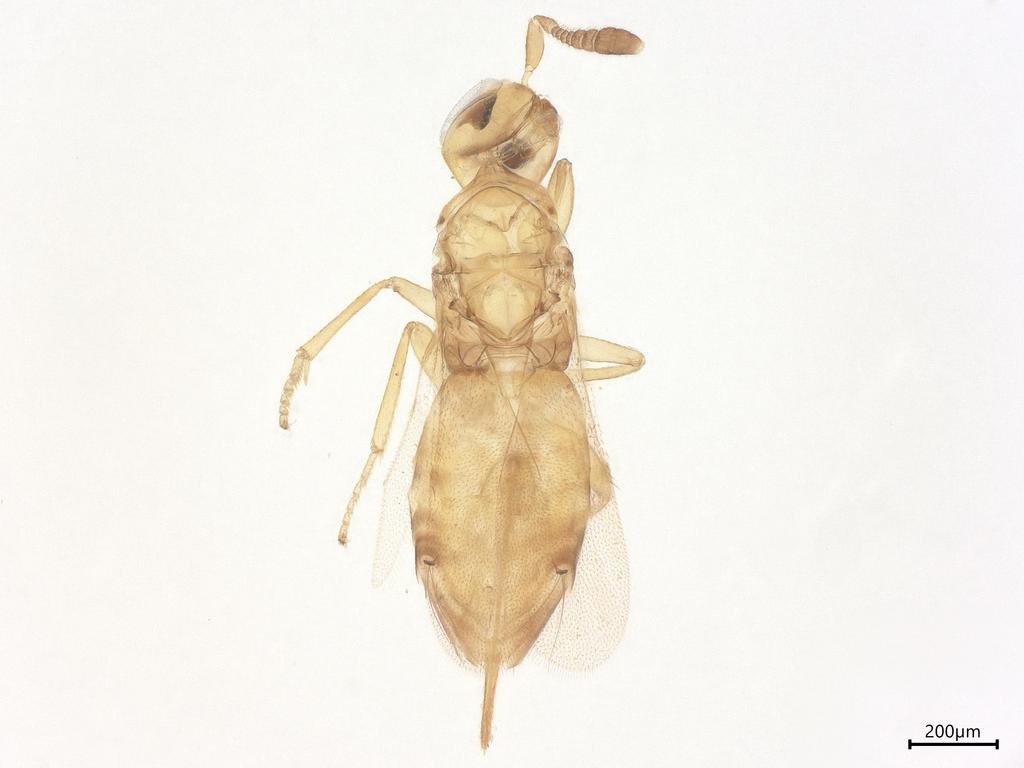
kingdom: Animalia
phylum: Arthropoda
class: Insecta
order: Hymenoptera
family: Encyrtidae
